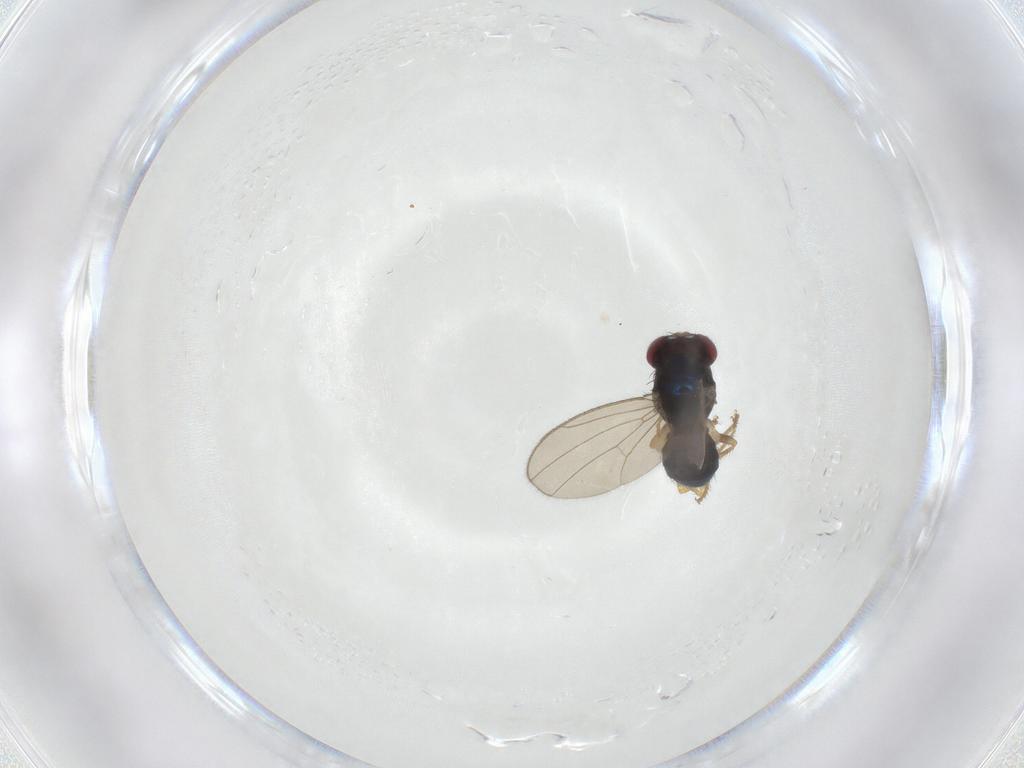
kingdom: Animalia
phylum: Arthropoda
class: Insecta
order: Diptera
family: Drosophilidae
